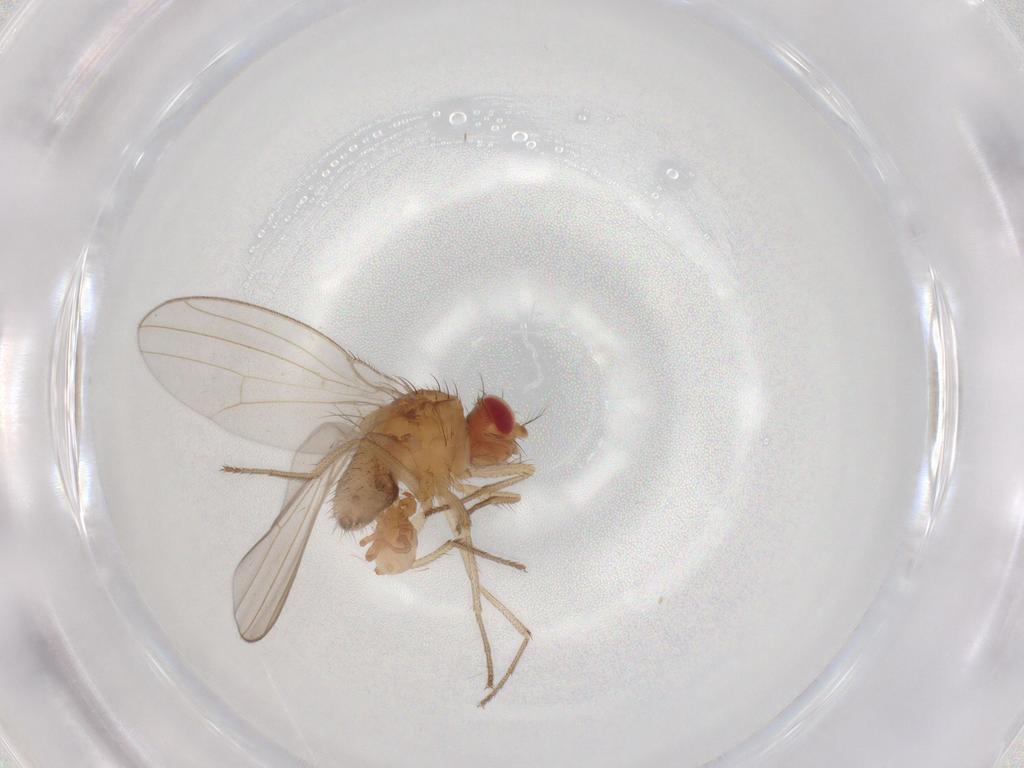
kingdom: Animalia
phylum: Arthropoda
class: Insecta
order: Diptera
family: Drosophilidae
